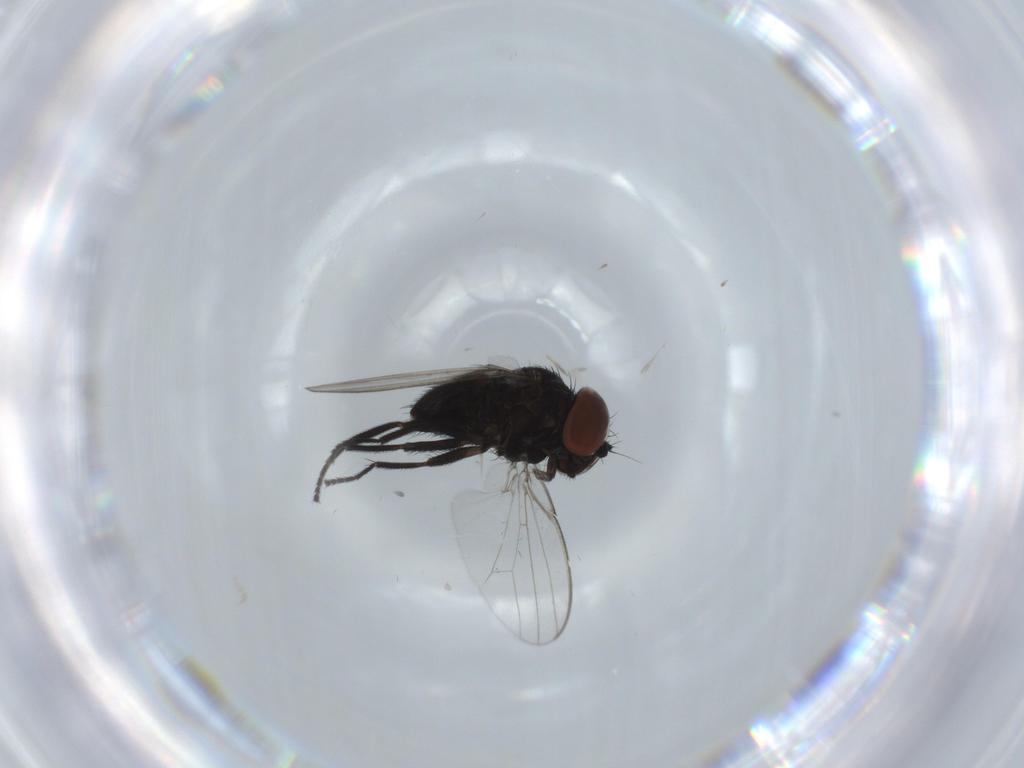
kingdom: Animalia
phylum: Arthropoda
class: Insecta
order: Diptera
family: Milichiidae
